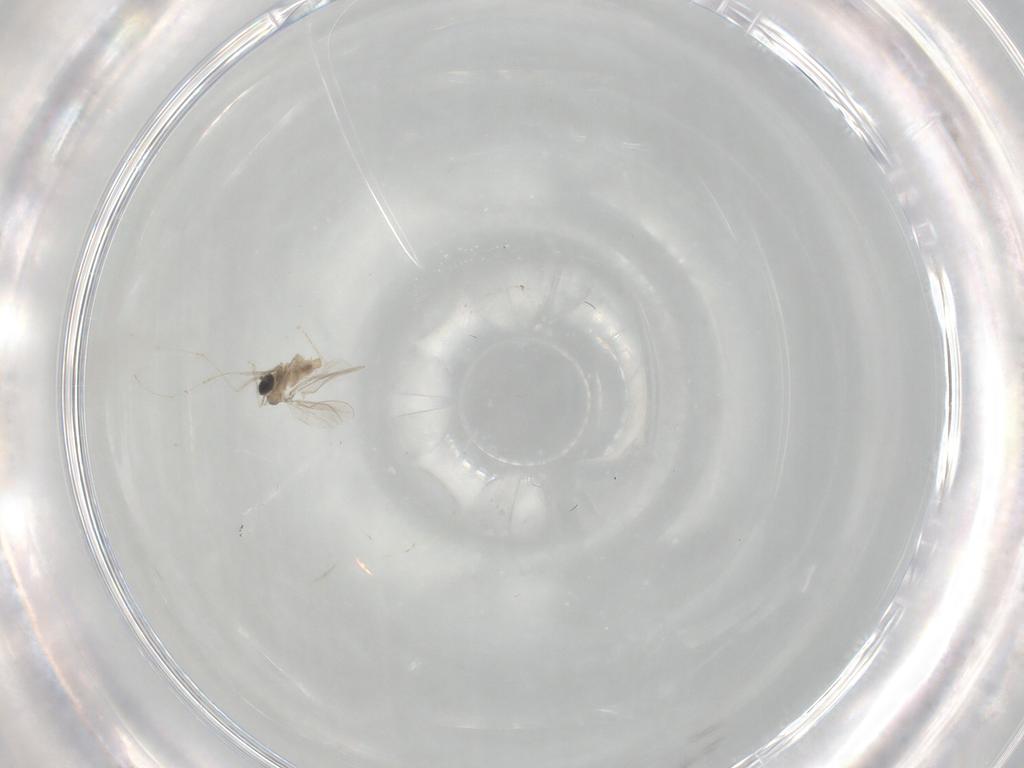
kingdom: Animalia
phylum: Arthropoda
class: Insecta
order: Diptera
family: Cecidomyiidae
